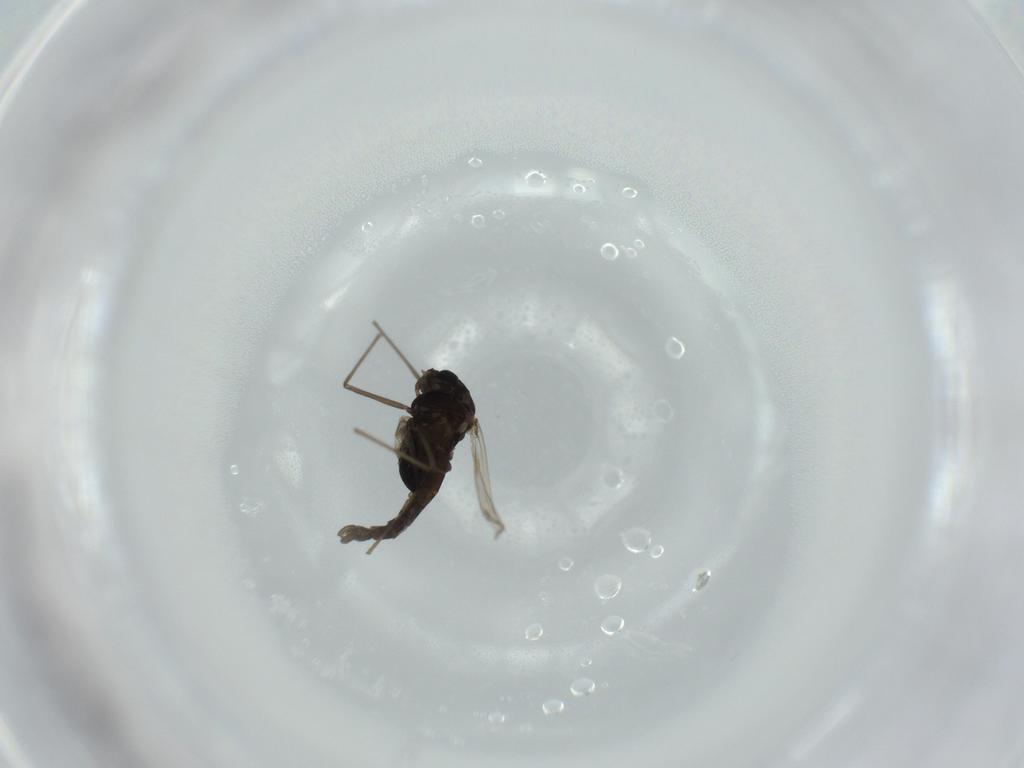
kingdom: Animalia
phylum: Arthropoda
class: Insecta
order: Diptera
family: Chironomidae
